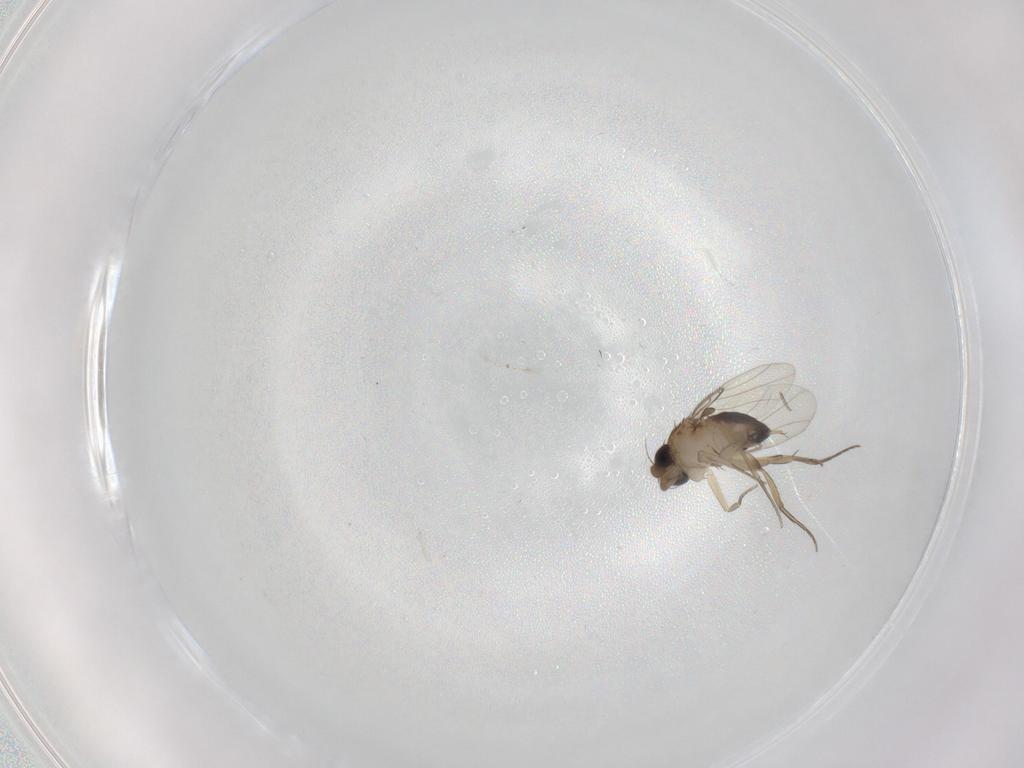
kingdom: Animalia
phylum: Arthropoda
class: Insecta
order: Diptera
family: Phoridae
